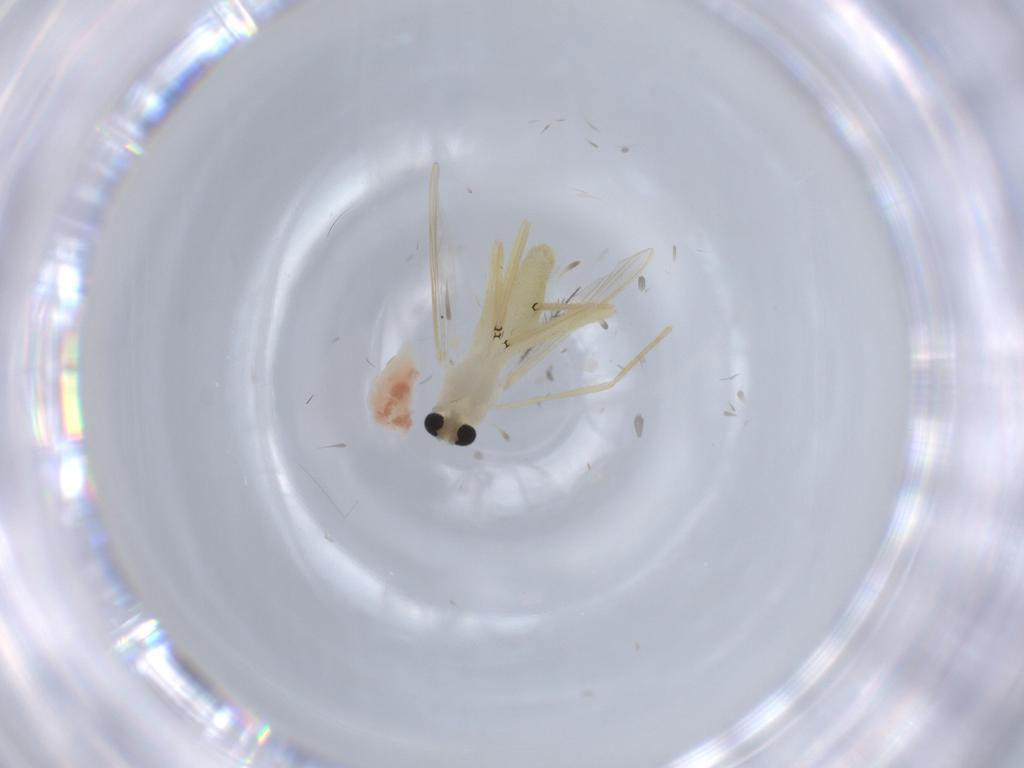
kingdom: Animalia
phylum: Arthropoda
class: Insecta
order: Diptera
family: Chironomidae
